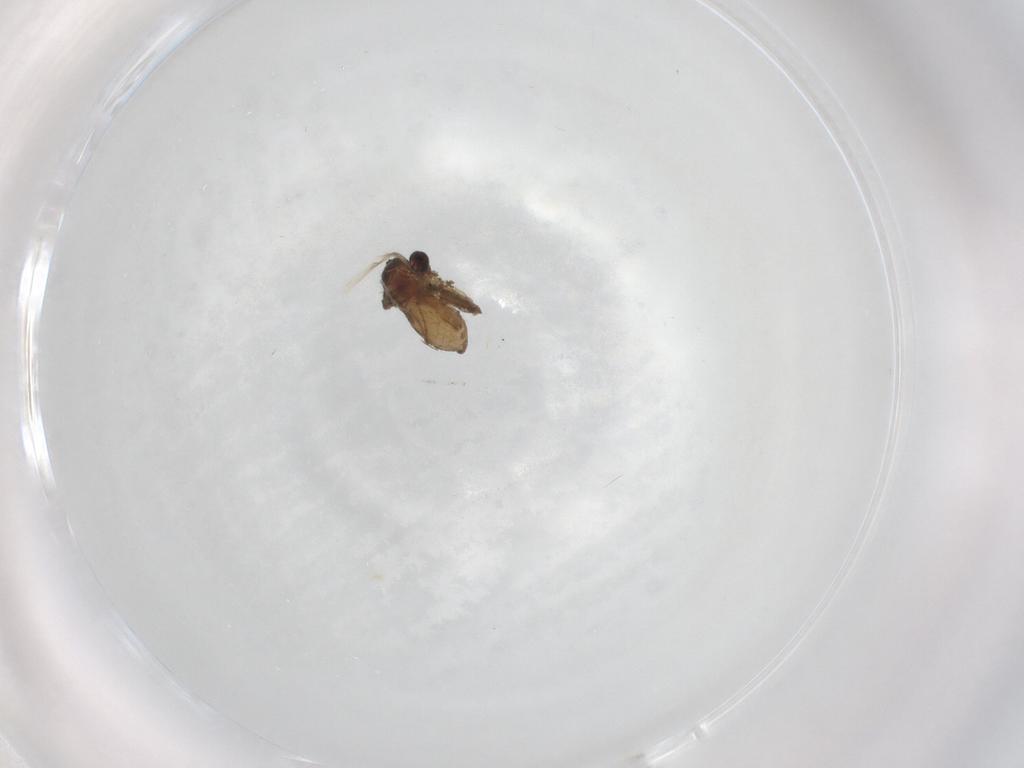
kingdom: Animalia
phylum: Arthropoda
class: Insecta
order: Diptera
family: Chironomidae
